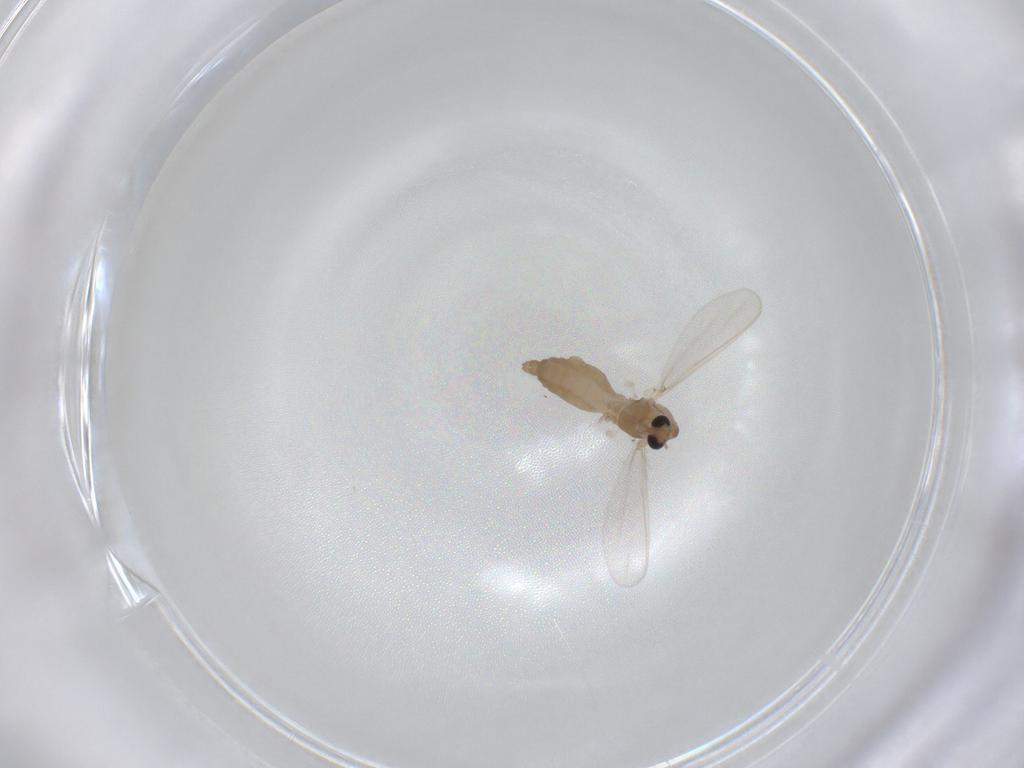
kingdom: Animalia
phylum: Arthropoda
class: Insecta
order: Diptera
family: Chironomidae
